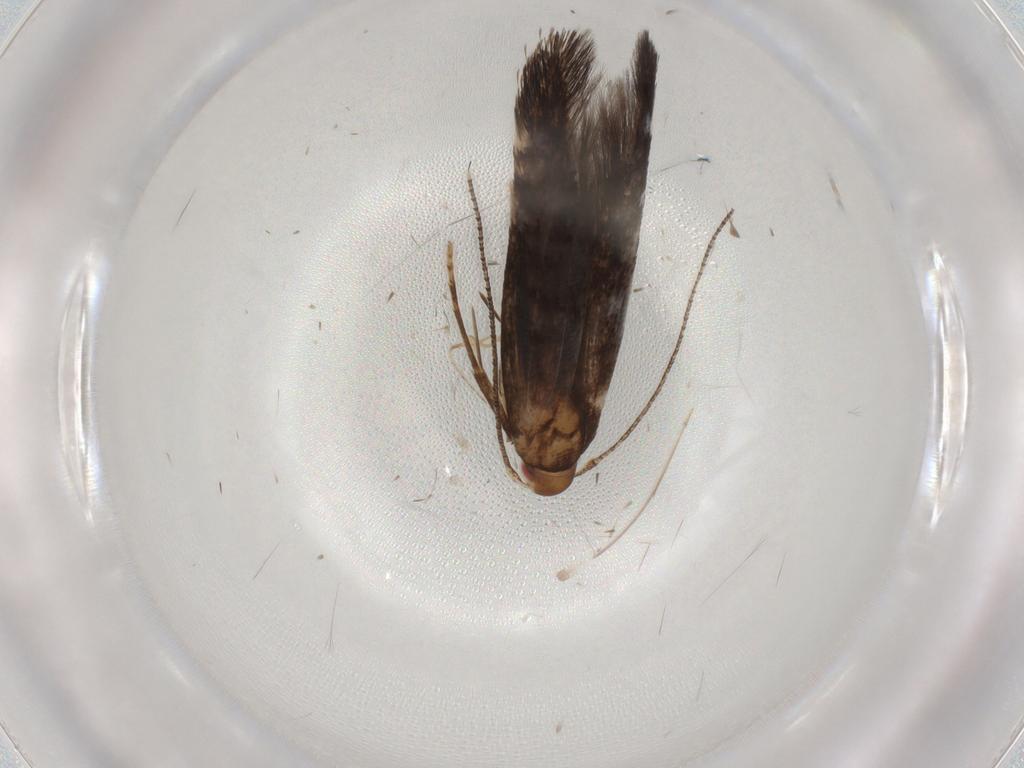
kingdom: Animalia
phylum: Arthropoda
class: Insecta
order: Lepidoptera
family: Cosmopterigidae
